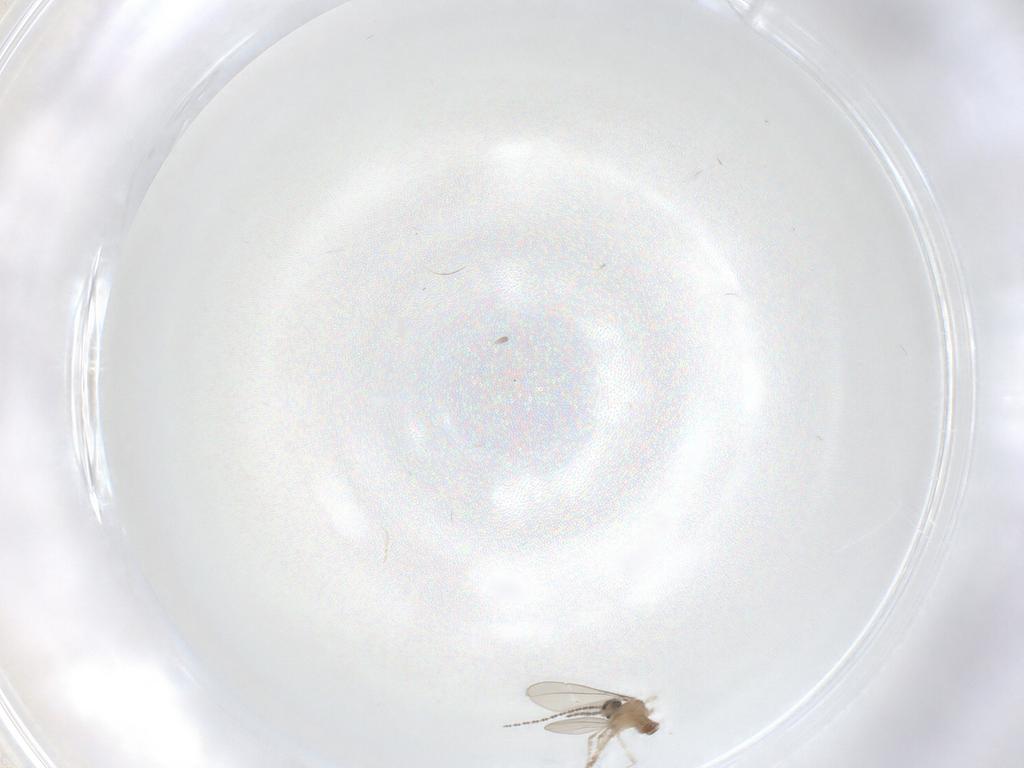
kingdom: Animalia
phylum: Arthropoda
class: Insecta
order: Diptera
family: Cecidomyiidae
